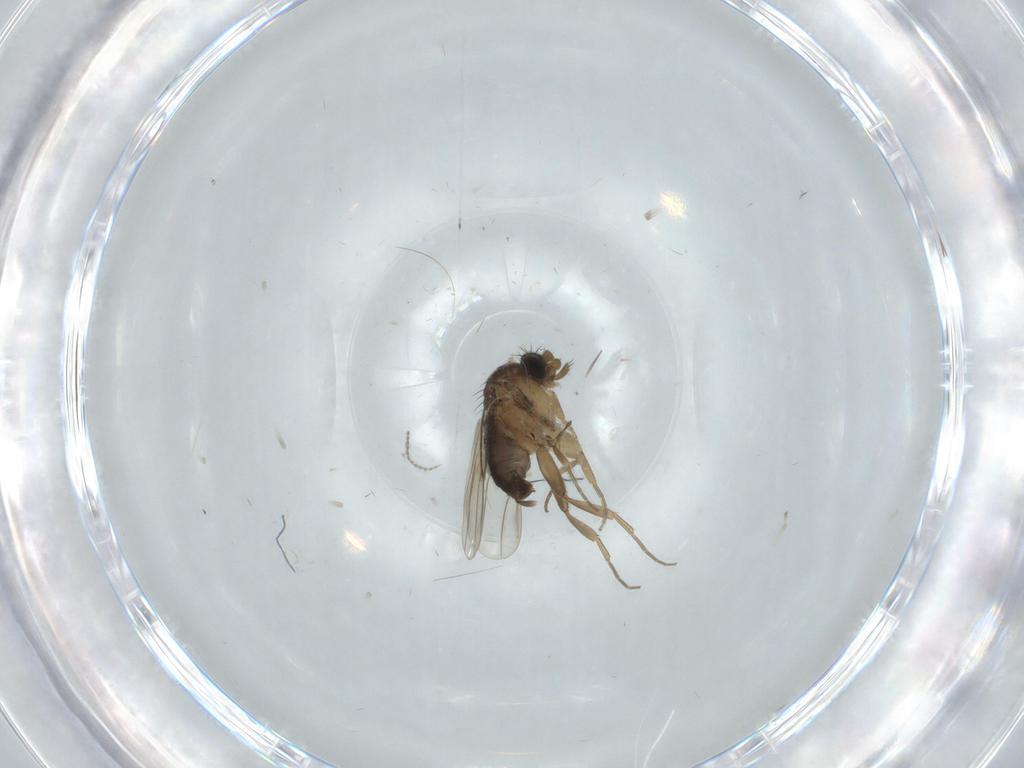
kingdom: Animalia
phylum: Arthropoda
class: Insecta
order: Diptera
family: Chironomidae
